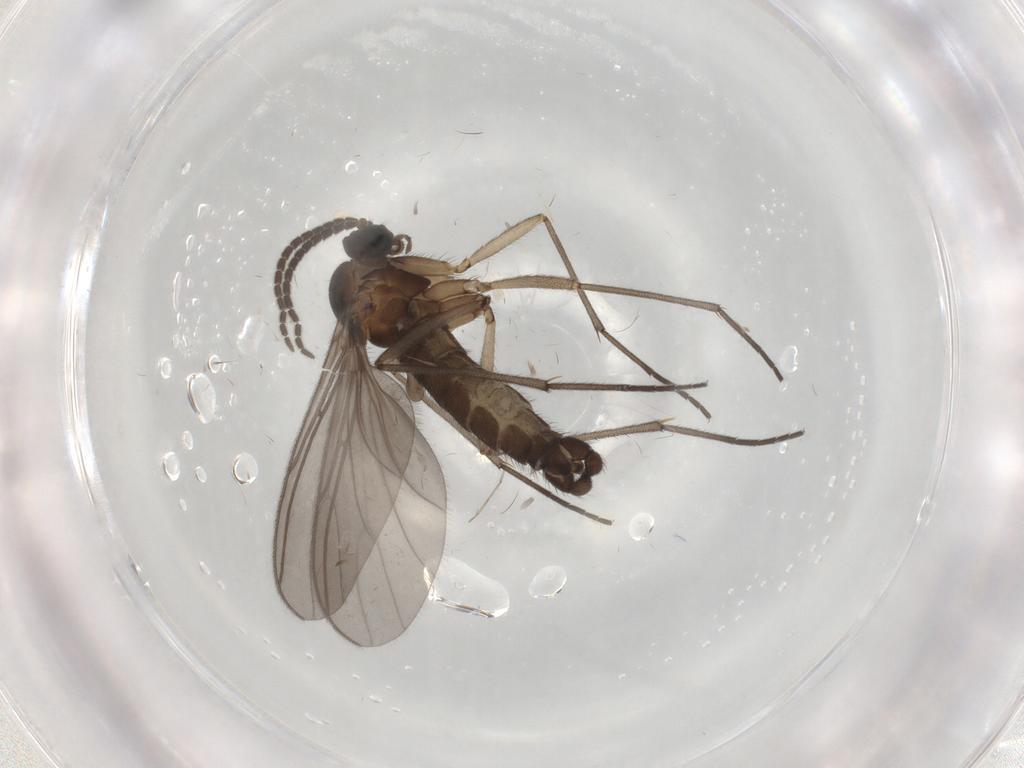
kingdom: Animalia
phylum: Arthropoda
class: Insecta
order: Diptera
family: Sciaridae
